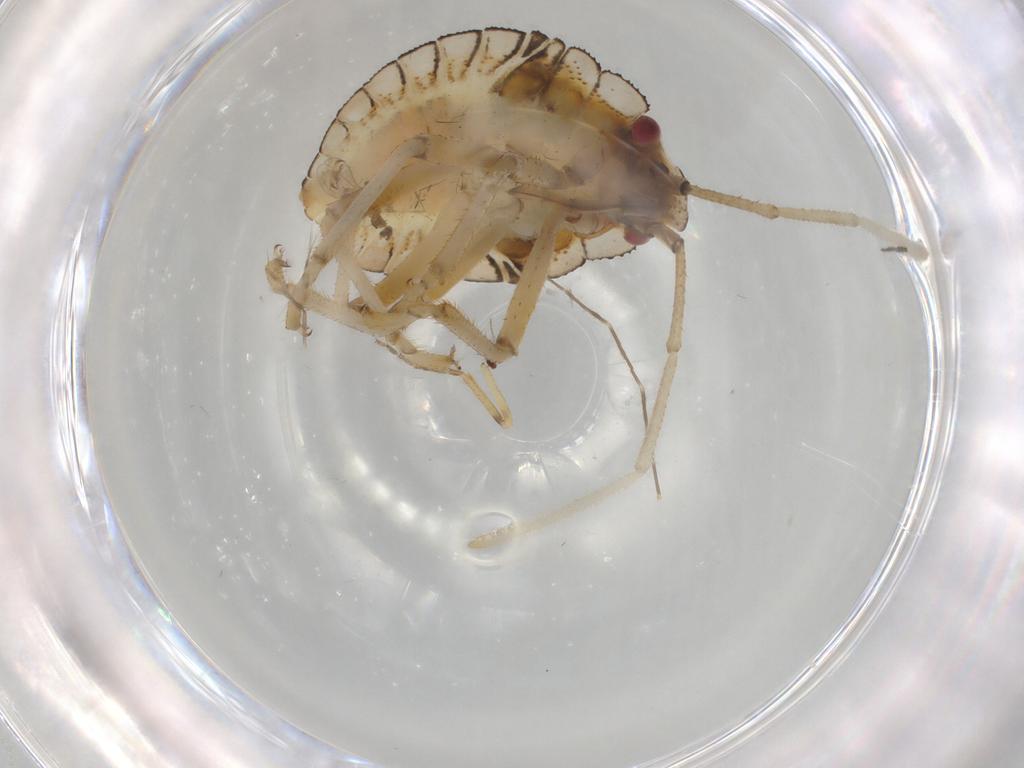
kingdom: Animalia
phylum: Arthropoda
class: Insecta
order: Hemiptera
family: Pentatomidae
